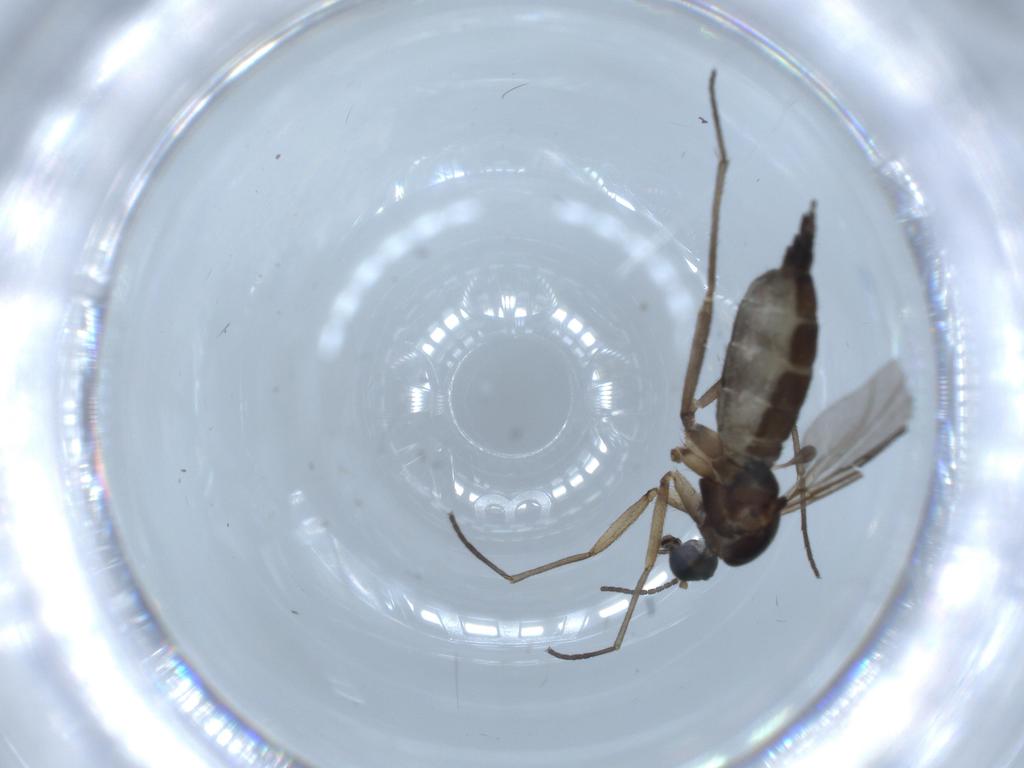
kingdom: Animalia
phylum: Arthropoda
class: Insecta
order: Diptera
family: Sciaridae
